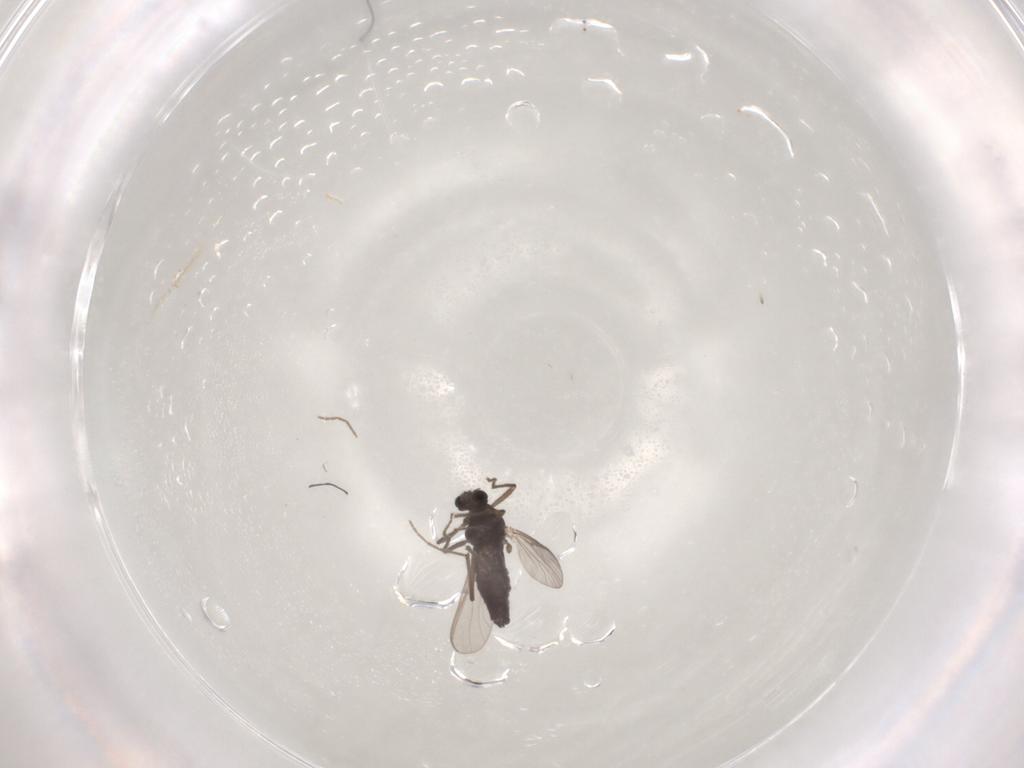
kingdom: Animalia
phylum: Arthropoda
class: Insecta
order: Diptera
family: Chironomidae
